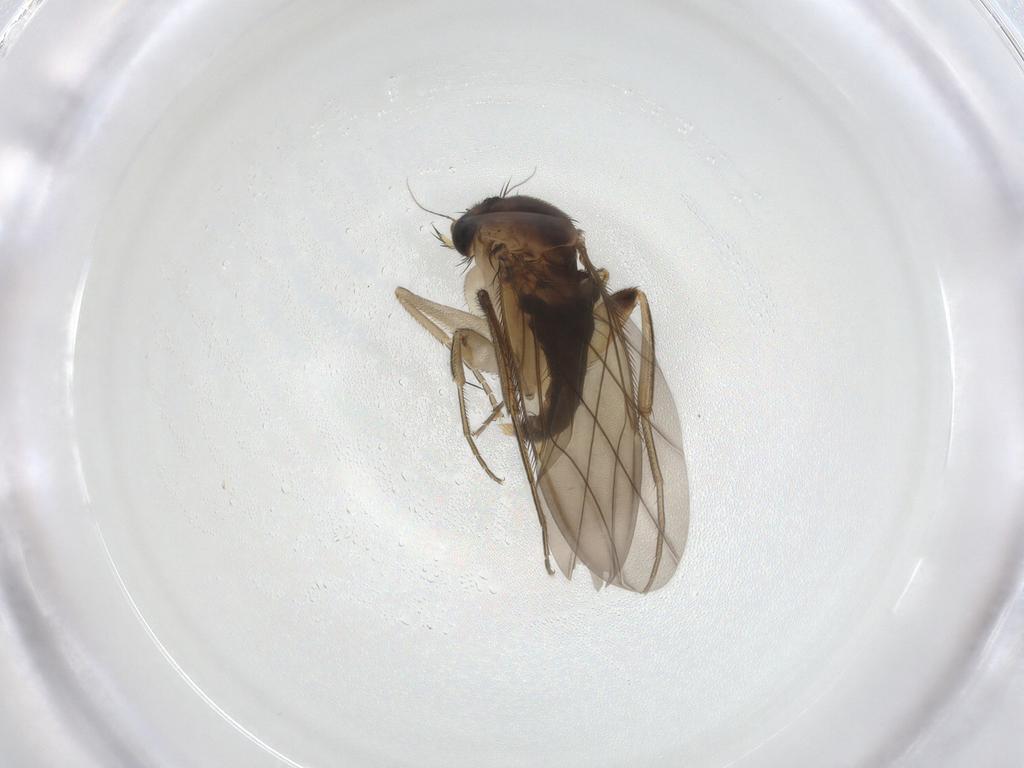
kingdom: Animalia
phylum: Arthropoda
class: Insecta
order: Diptera
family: Phoridae
